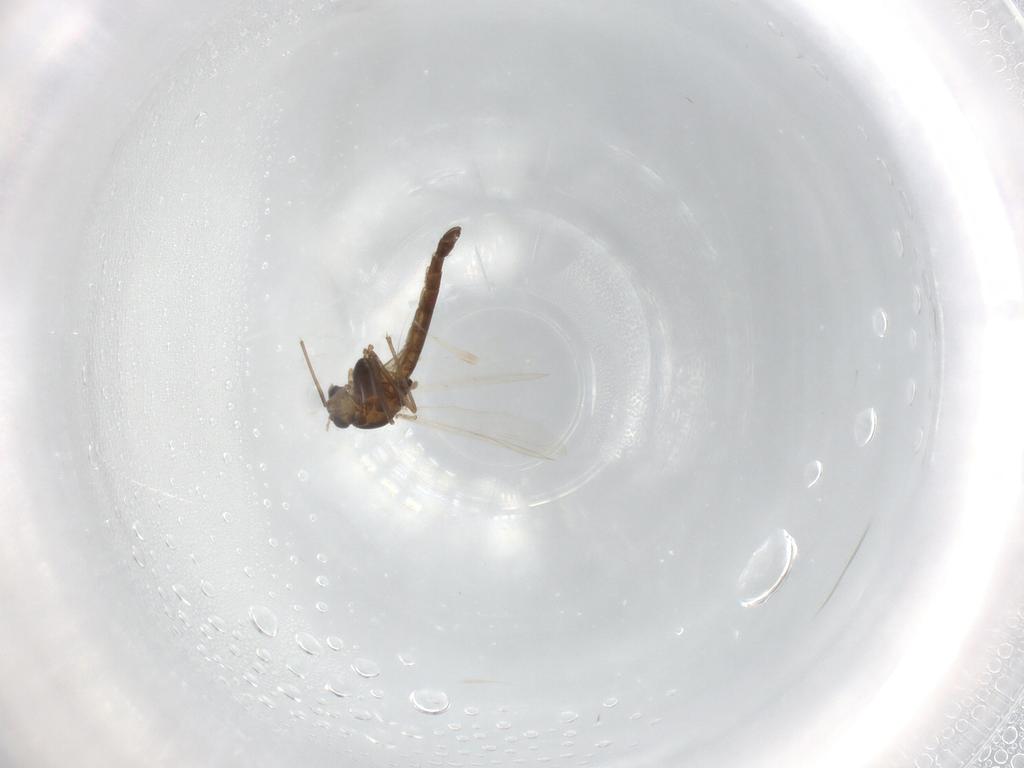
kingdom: Animalia
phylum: Arthropoda
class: Insecta
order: Diptera
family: Chironomidae
